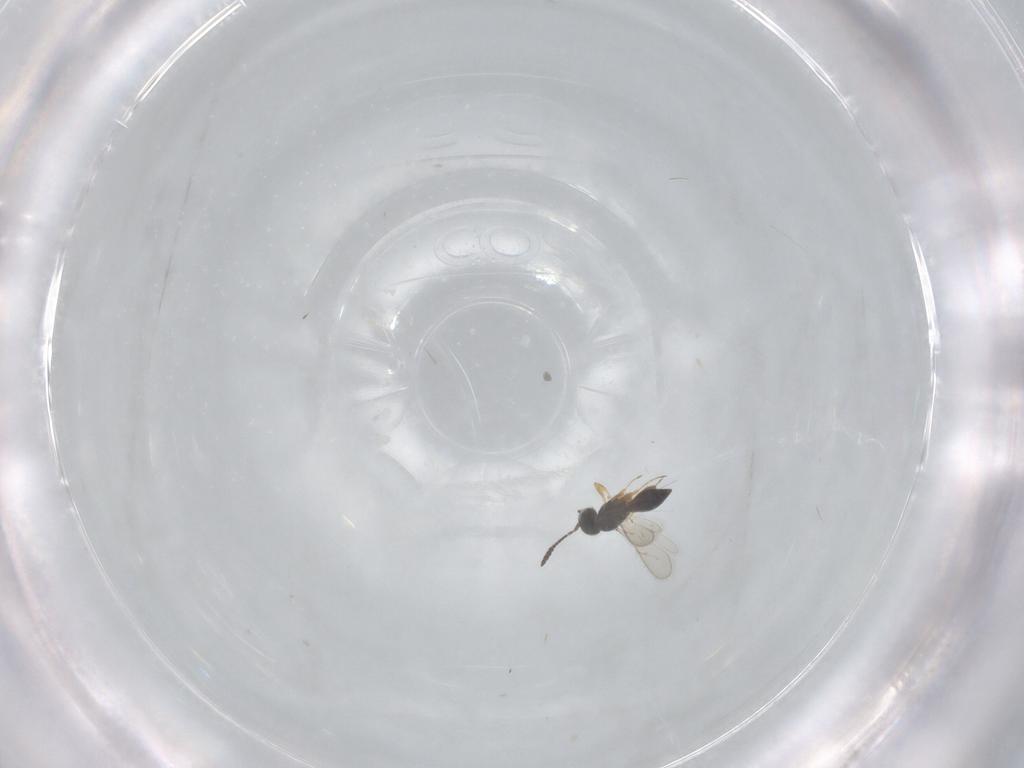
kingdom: Animalia
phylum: Arthropoda
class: Insecta
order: Hymenoptera
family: Scelionidae
